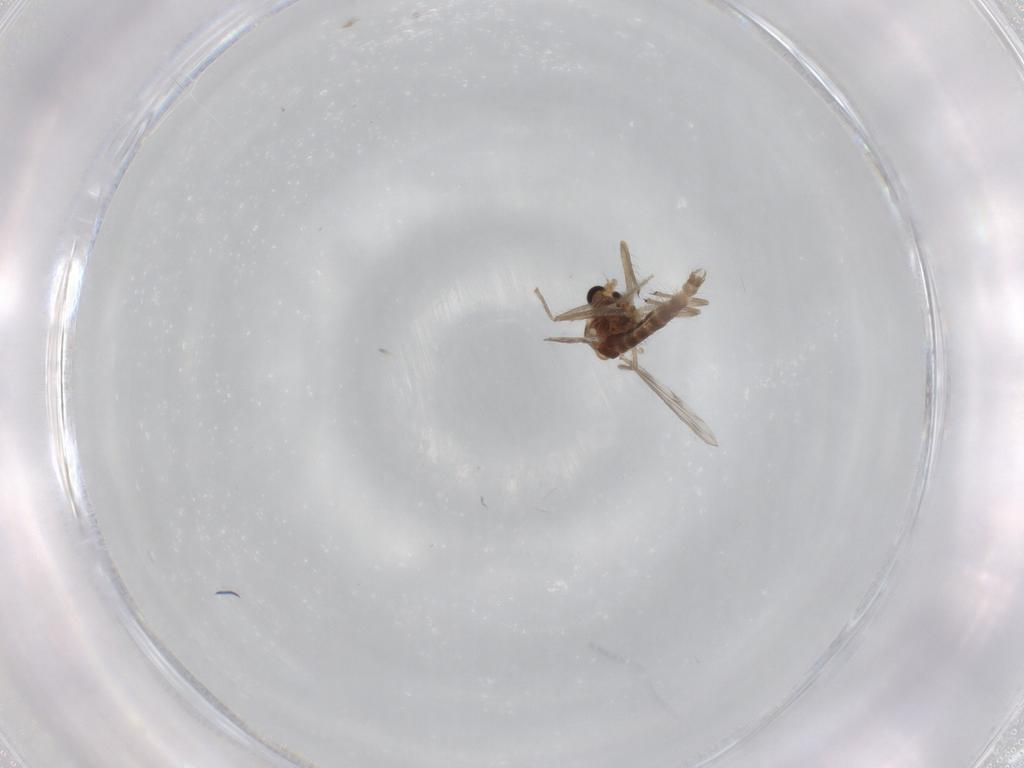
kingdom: Animalia
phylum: Arthropoda
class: Insecta
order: Diptera
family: Chironomidae
